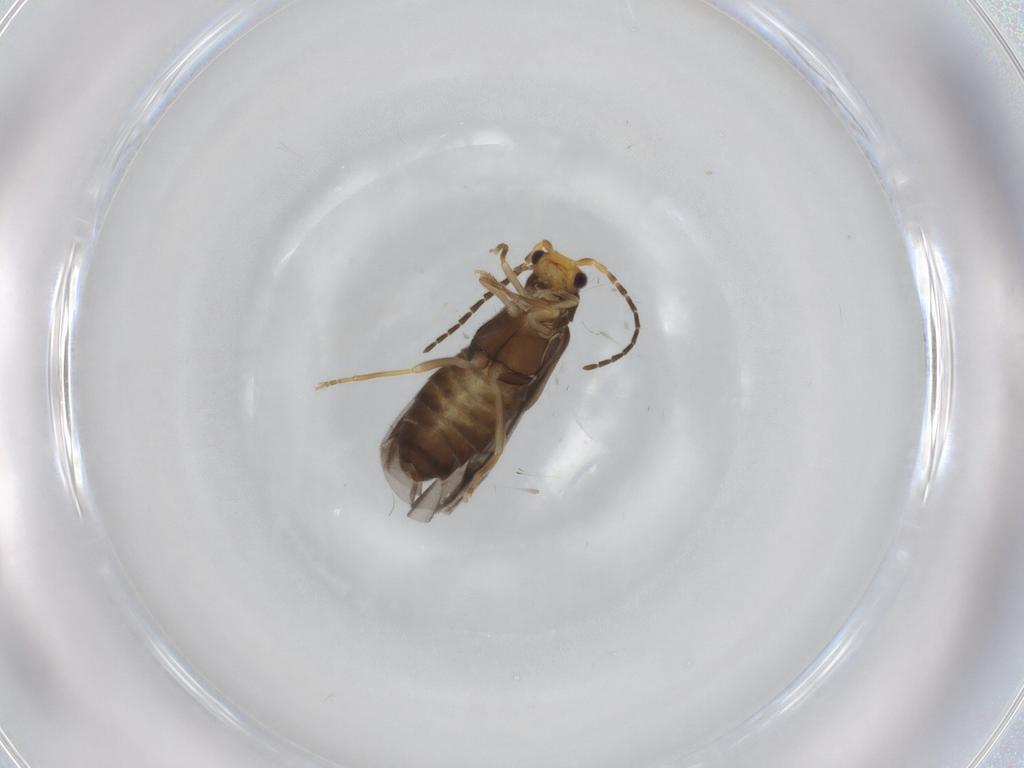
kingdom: Animalia
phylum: Arthropoda
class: Insecta
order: Coleoptera
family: Cantharidae
